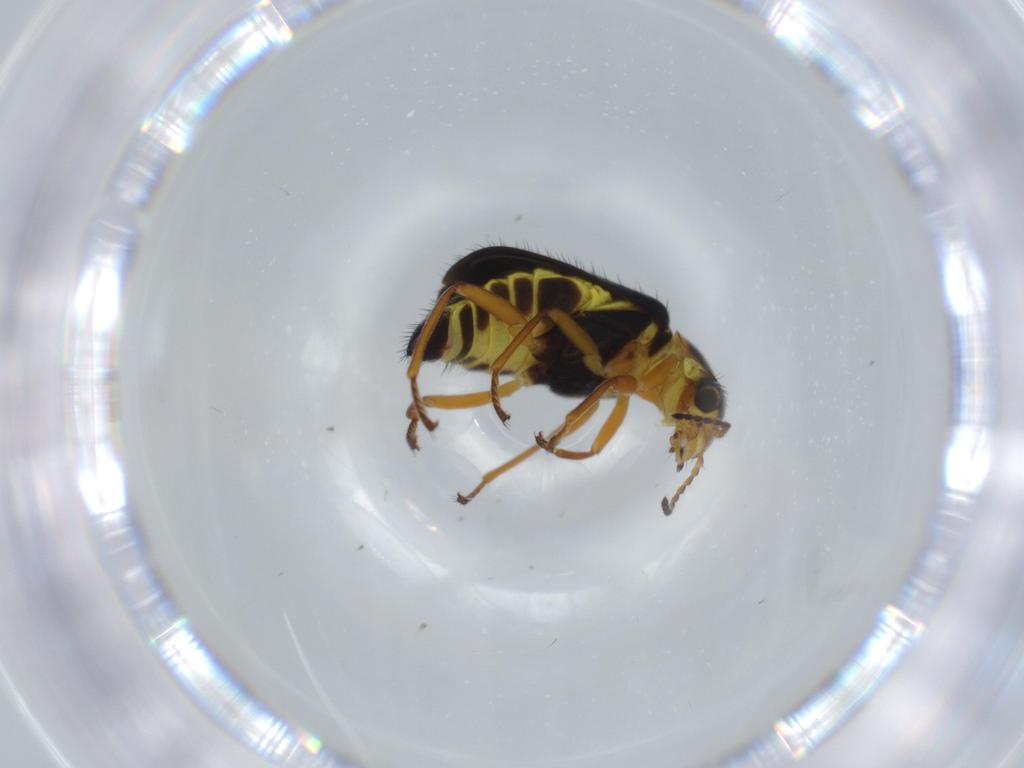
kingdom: Animalia
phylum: Arthropoda
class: Insecta
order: Coleoptera
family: Melyridae
